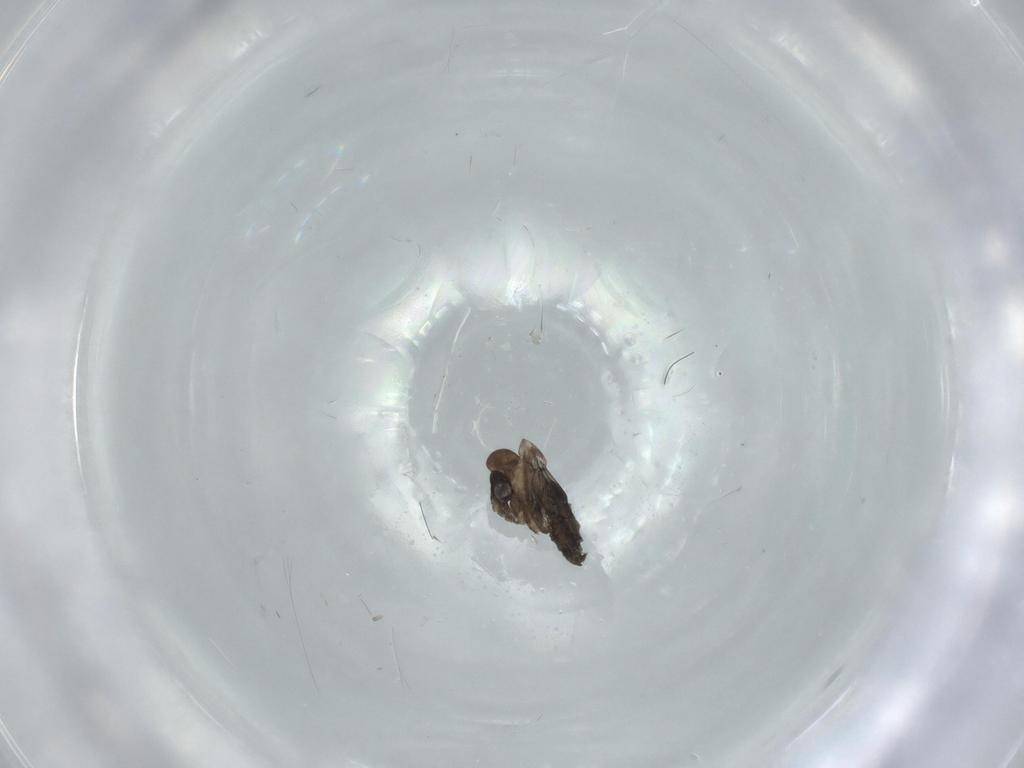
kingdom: Animalia
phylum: Arthropoda
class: Insecta
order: Diptera
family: Phoridae
